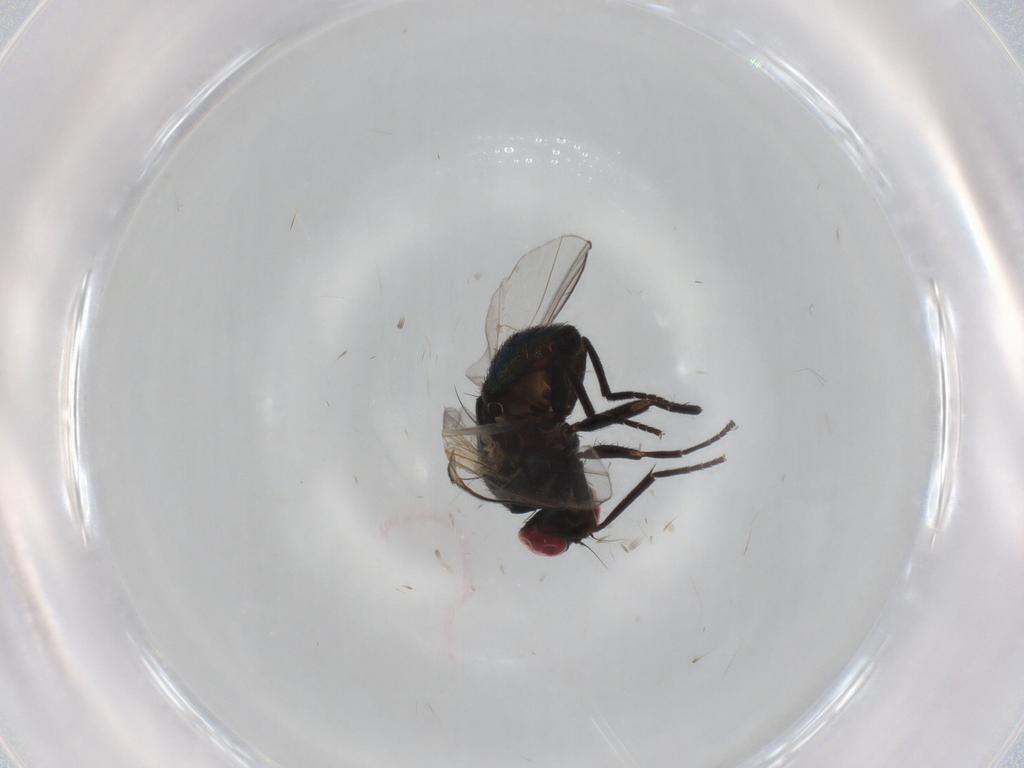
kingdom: Animalia
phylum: Arthropoda
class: Insecta
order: Diptera
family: Agromyzidae
